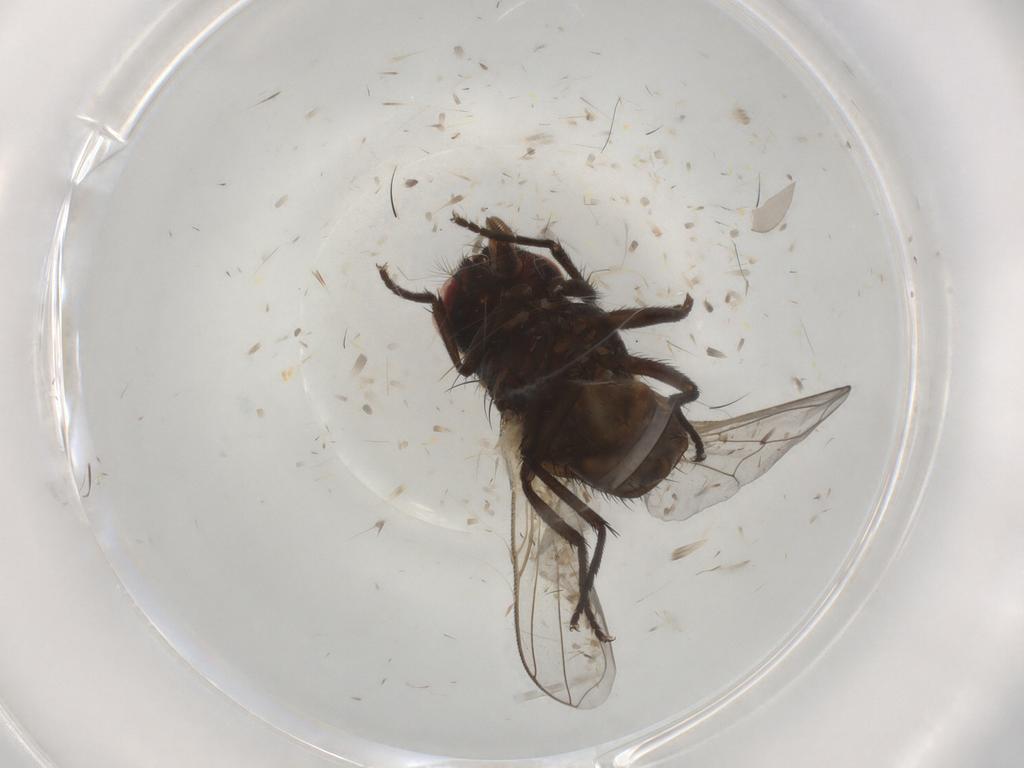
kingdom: Animalia
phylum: Arthropoda
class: Insecta
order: Diptera
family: Muscidae
